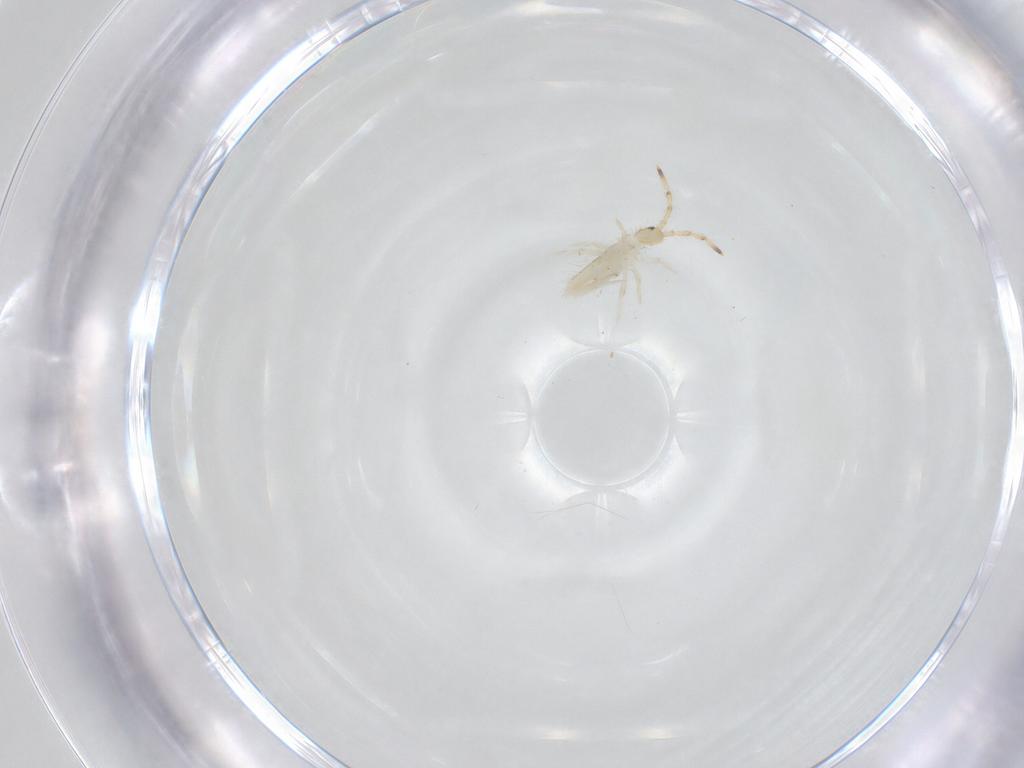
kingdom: Animalia
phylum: Arthropoda
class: Collembola
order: Entomobryomorpha
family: Entomobryidae
